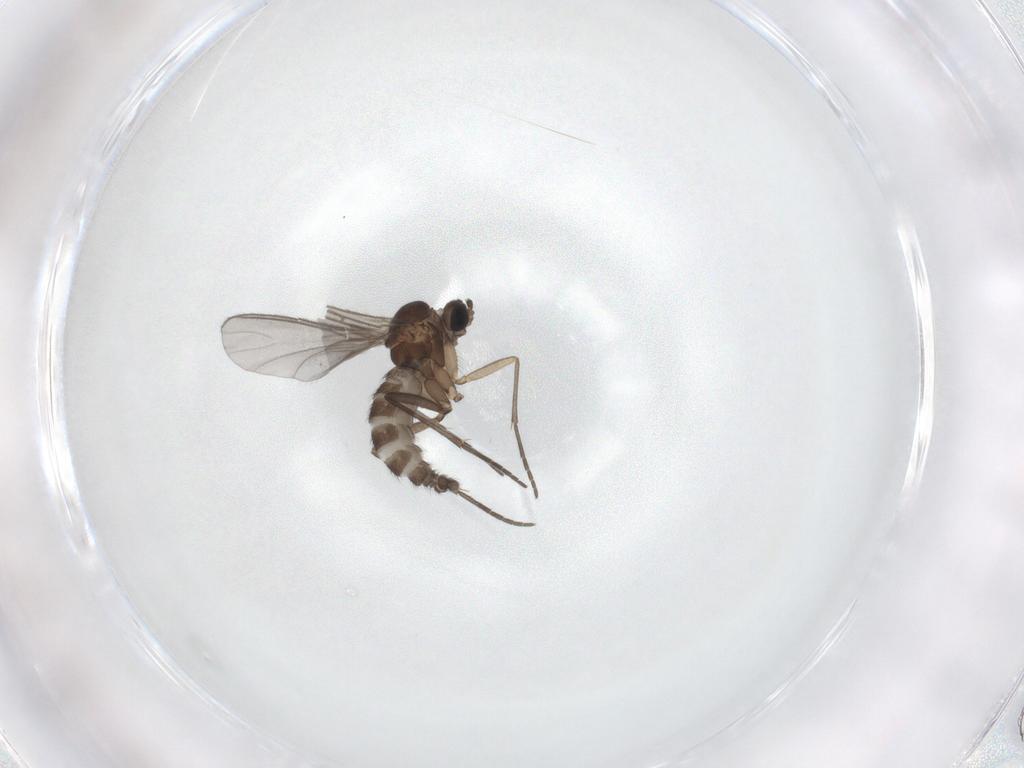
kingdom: Animalia
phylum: Arthropoda
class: Insecta
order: Diptera
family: Sciaridae
